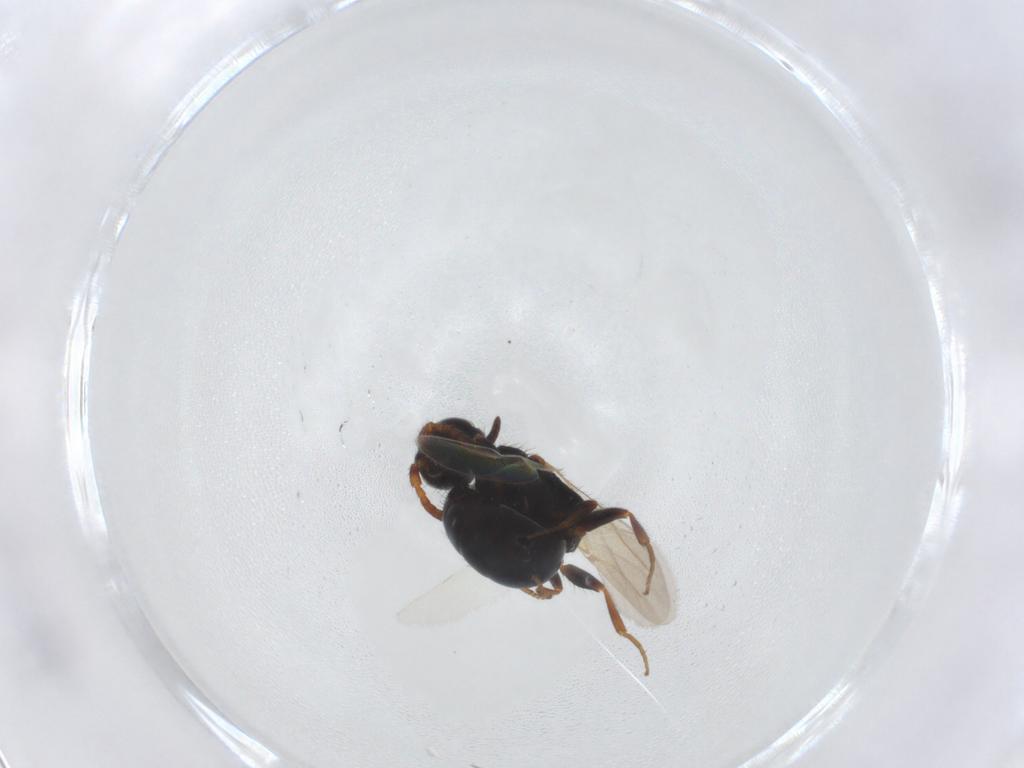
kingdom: Animalia
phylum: Arthropoda
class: Insecta
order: Hymenoptera
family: Bethylidae
